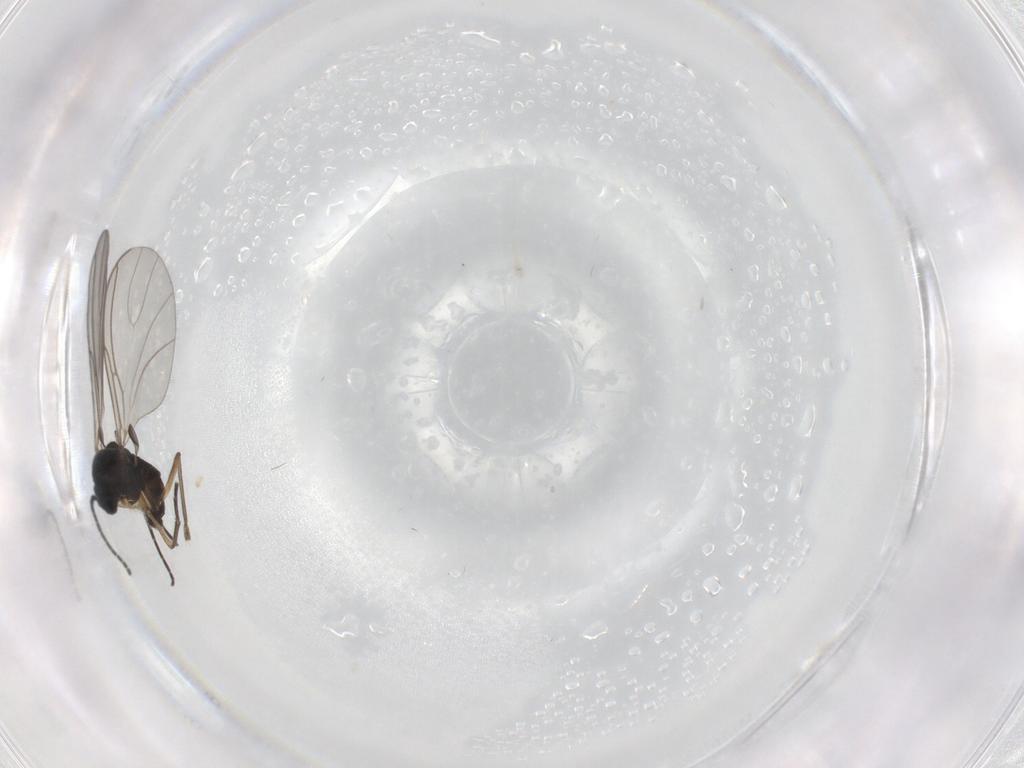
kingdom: Animalia
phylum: Arthropoda
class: Insecta
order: Diptera
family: Sciaridae
